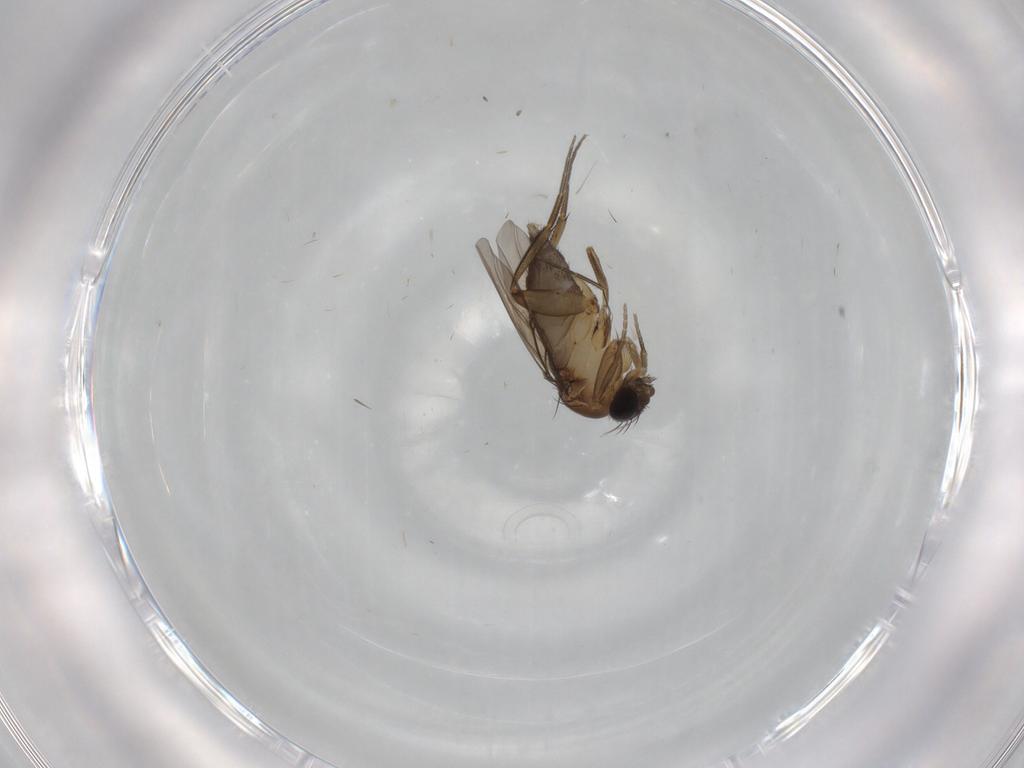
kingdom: Animalia
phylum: Arthropoda
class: Insecta
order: Diptera
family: Phoridae
